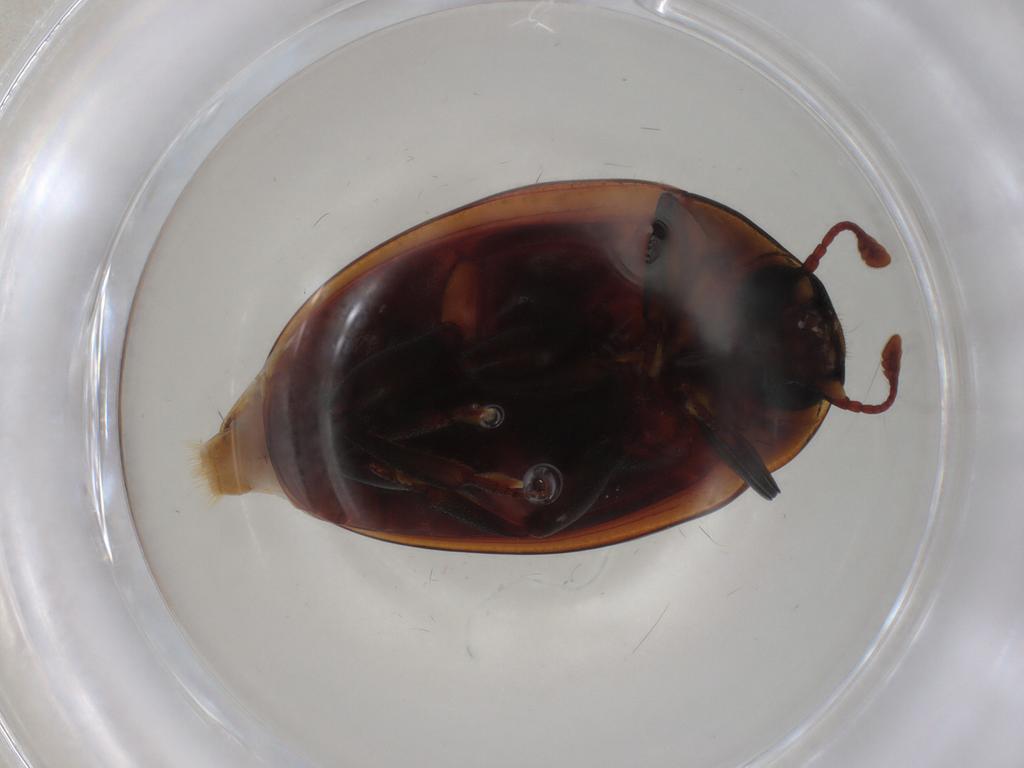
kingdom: Animalia
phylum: Arthropoda
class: Insecta
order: Coleoptera
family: Zopheridae
